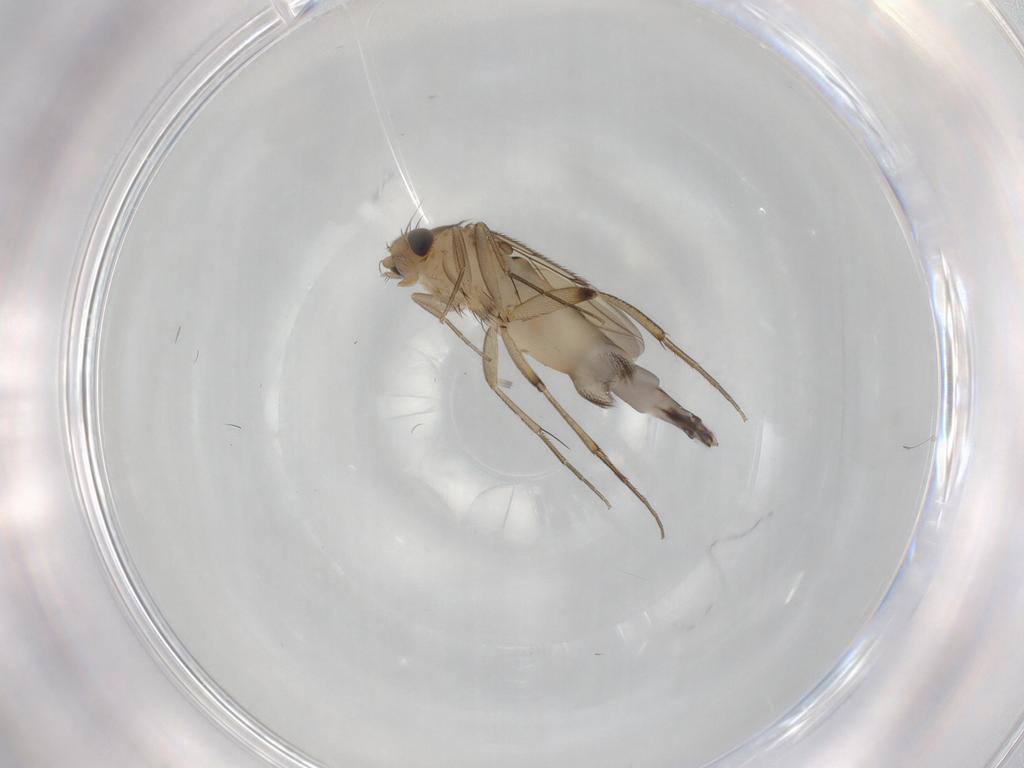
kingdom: Animalia
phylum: Arthropoda
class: Insecta
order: Diptera
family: Phoridae
